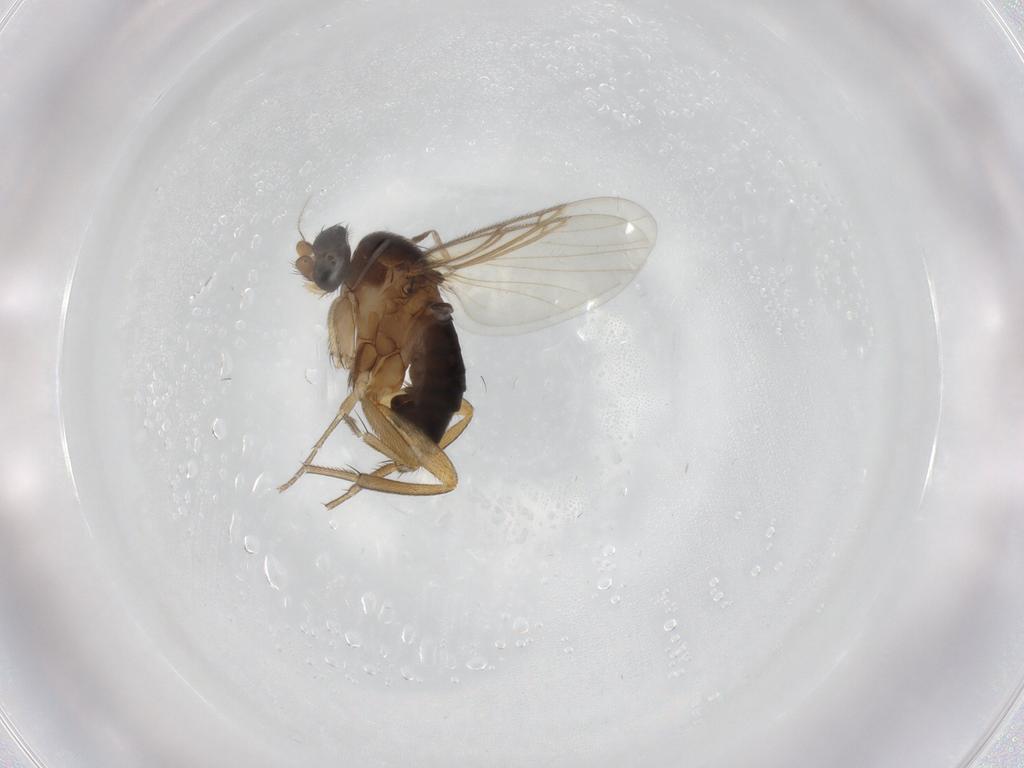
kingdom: Animalia
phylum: Arthropoda
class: Insecta
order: Diptera
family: Phoridae
